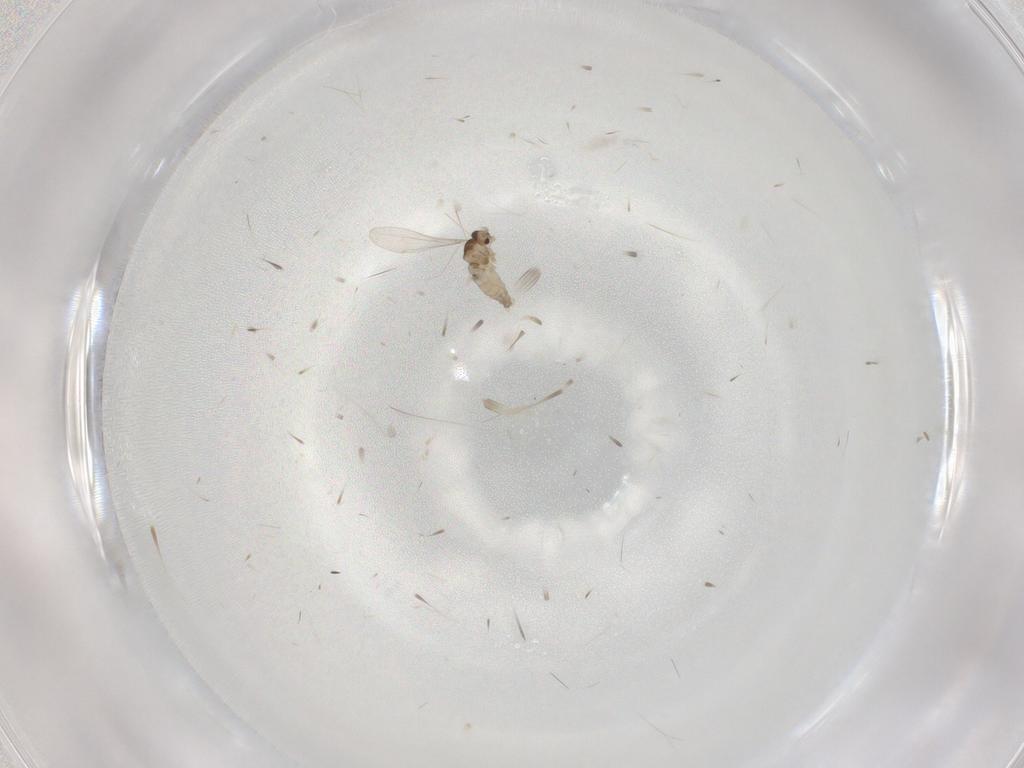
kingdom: Animalia
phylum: Arthropoda
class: Insecta
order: Diptera
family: Cecidomyiidae
